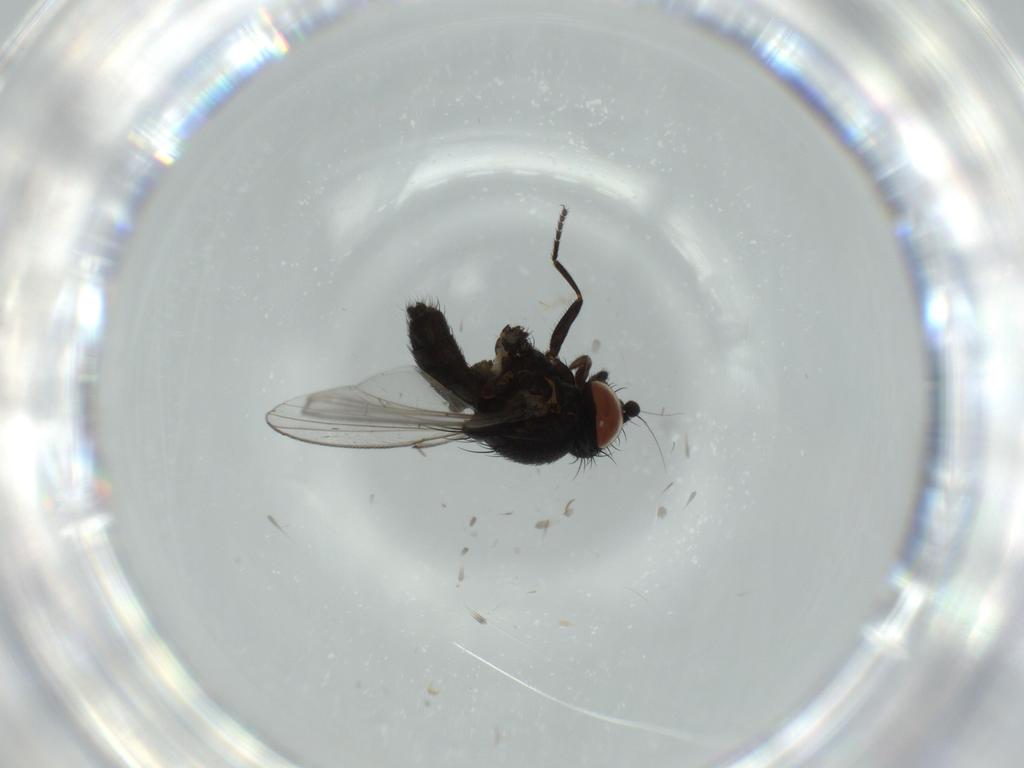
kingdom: Animalia
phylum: Arthropoda
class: Insecta
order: Diptera
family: Milichiidae
